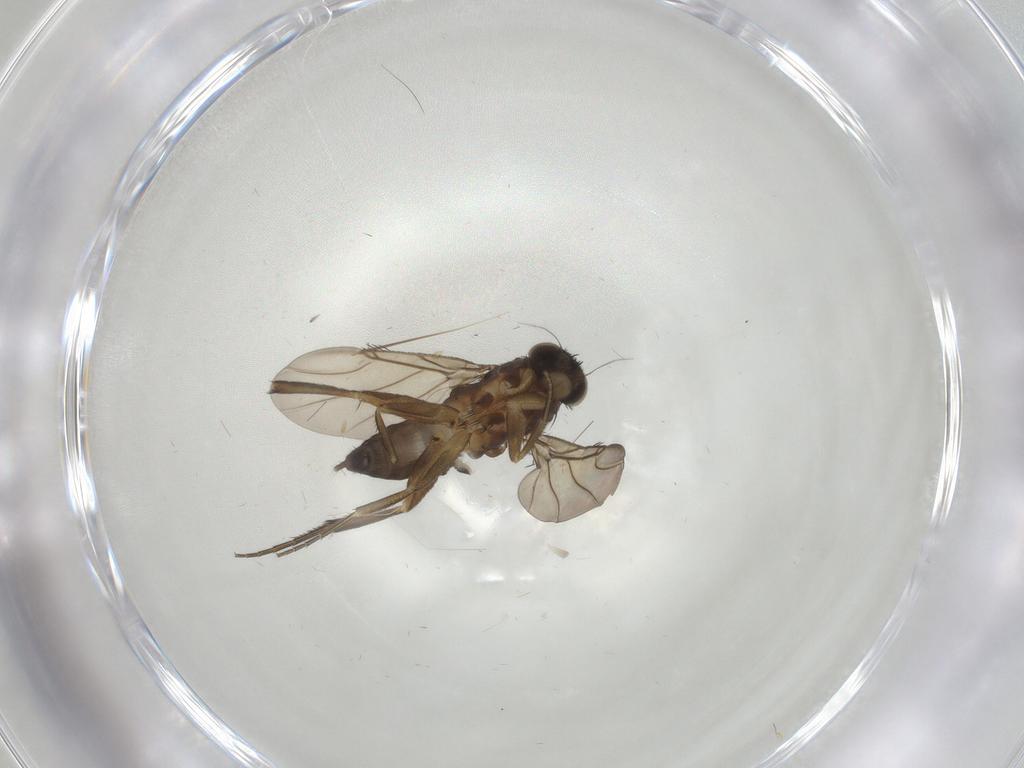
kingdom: Animalia
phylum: Arthropoda
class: Insecta
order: Diptera
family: Phoridae
